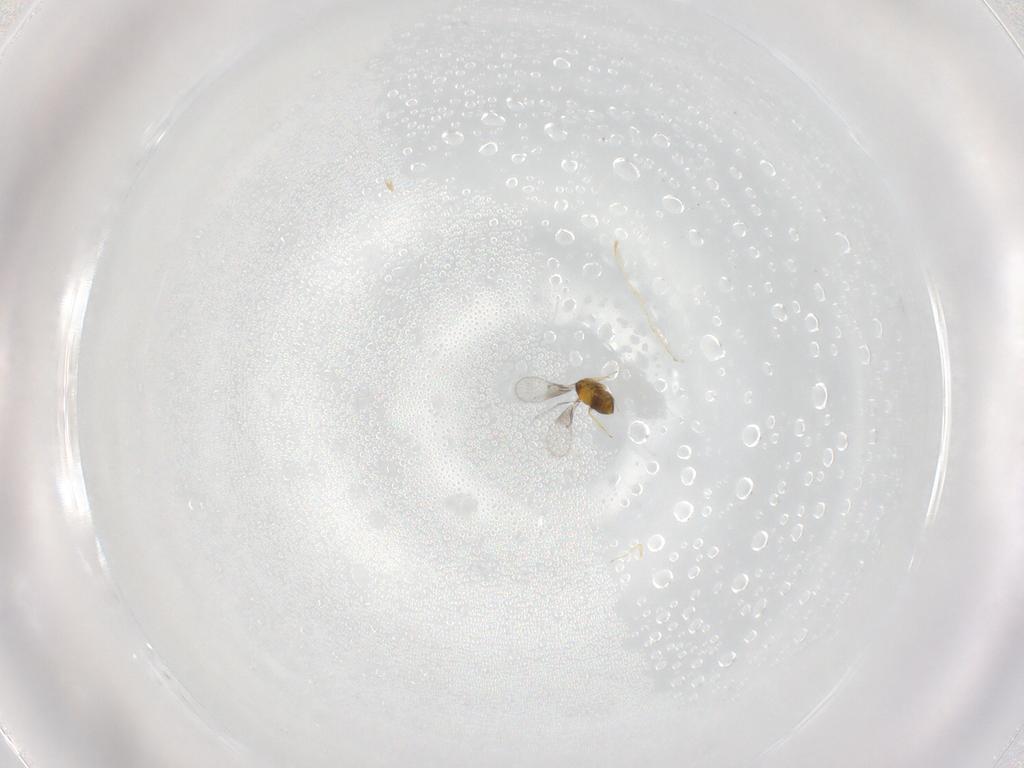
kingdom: Animalia
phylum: Arthropoda
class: Insecta
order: Hymenoptera
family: Trichogrammatidae
